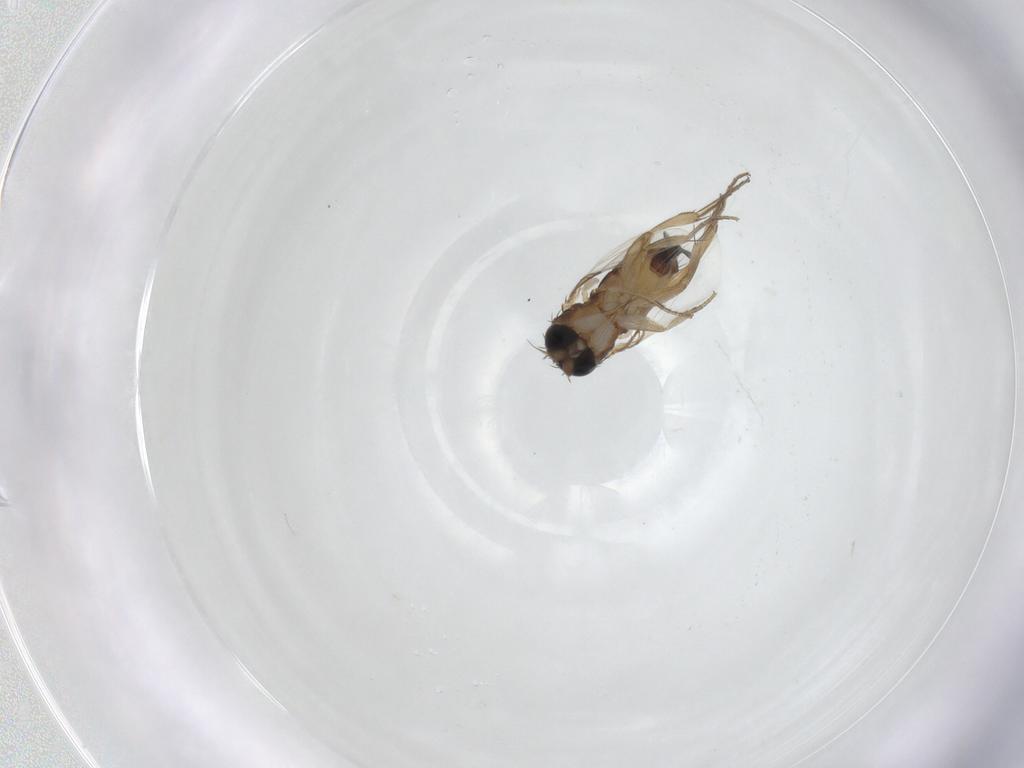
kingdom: Animalia
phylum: Arthropoda
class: Insecta
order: Diptera
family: Phoridae
